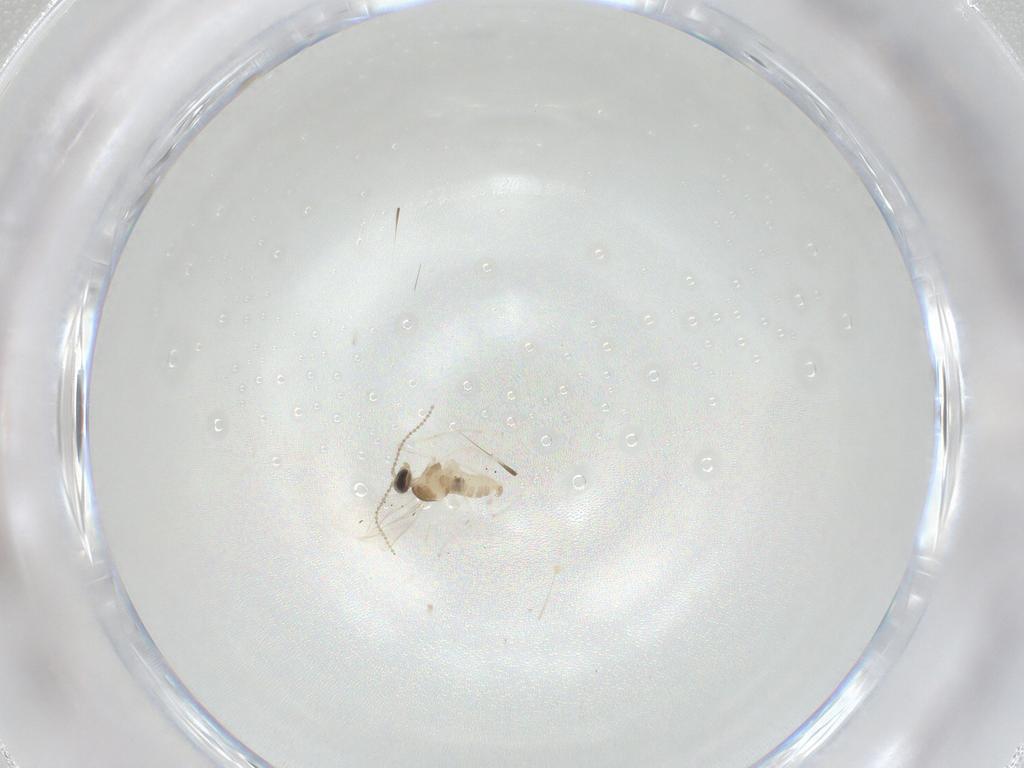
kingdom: Animalia
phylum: Arthropoda
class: Insecta
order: Diptera
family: Cecidomyiidae
